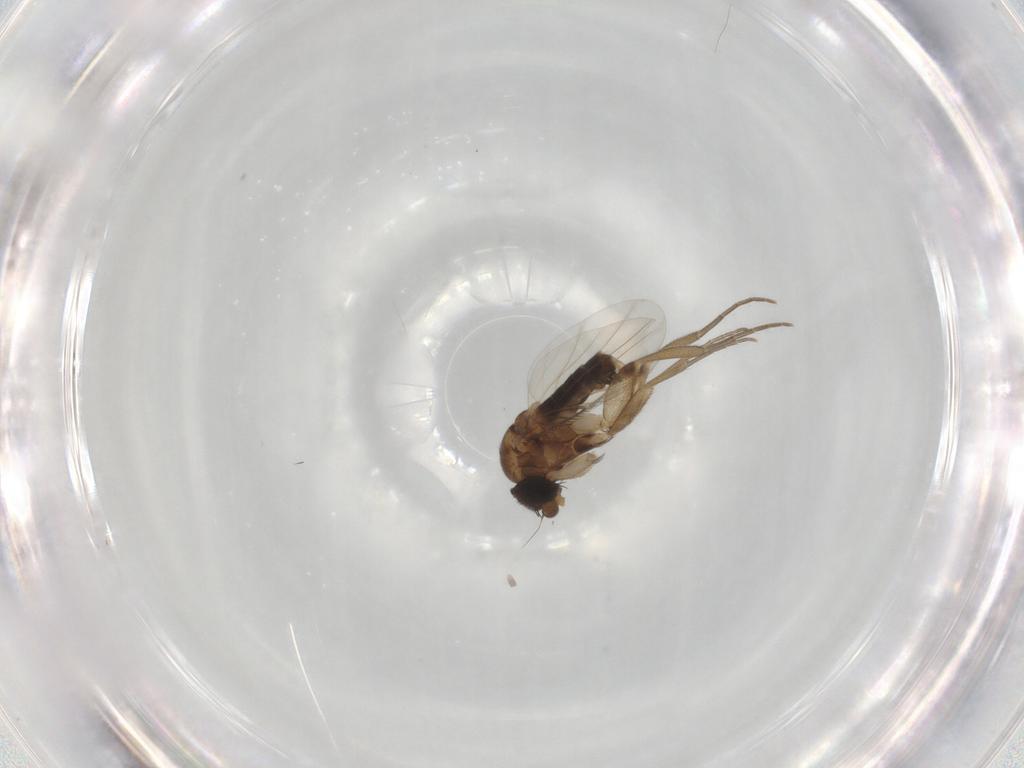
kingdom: Animalia
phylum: Arthropoda
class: Insecta
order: Diptera
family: Phoridae
